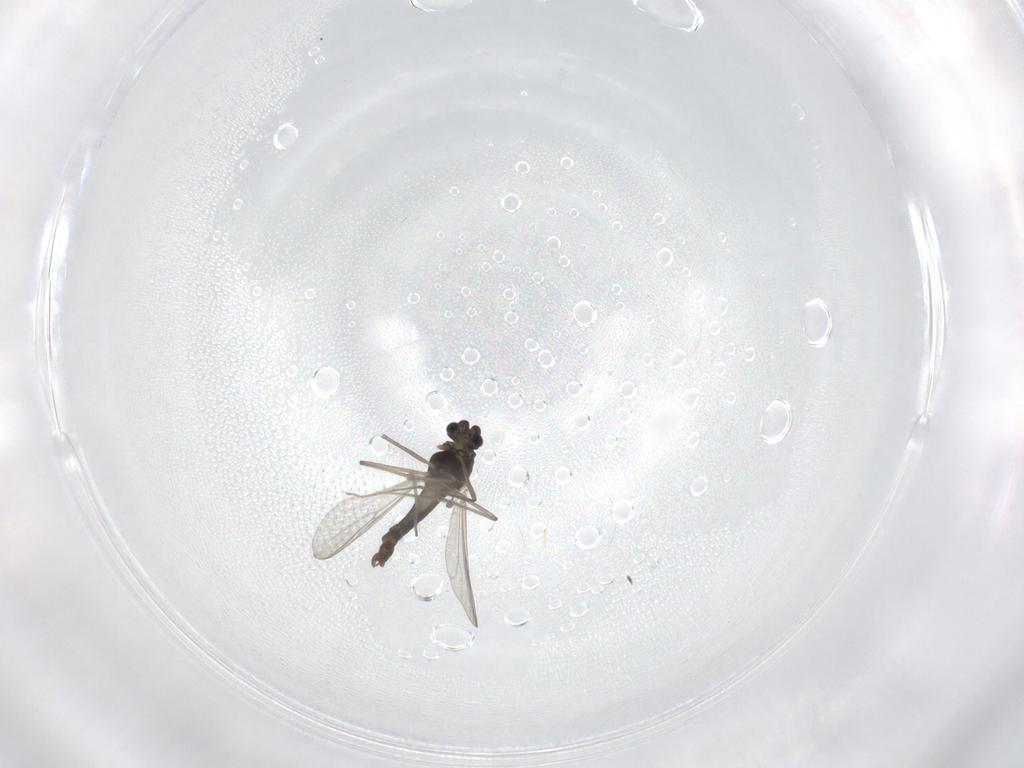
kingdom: Animalia
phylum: Arthropoda
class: Insecta
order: Diptera
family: Chironomidae
